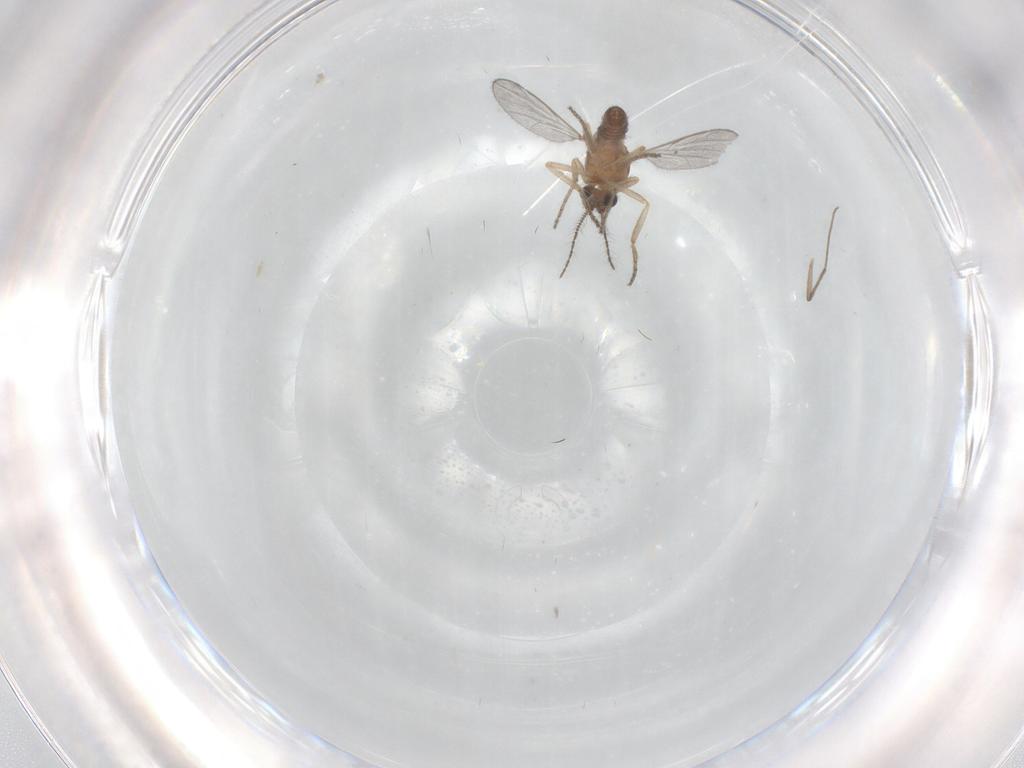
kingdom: Animalia
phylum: Arthropoda
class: Insecta
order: Diptera
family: Ceratopogonidae
